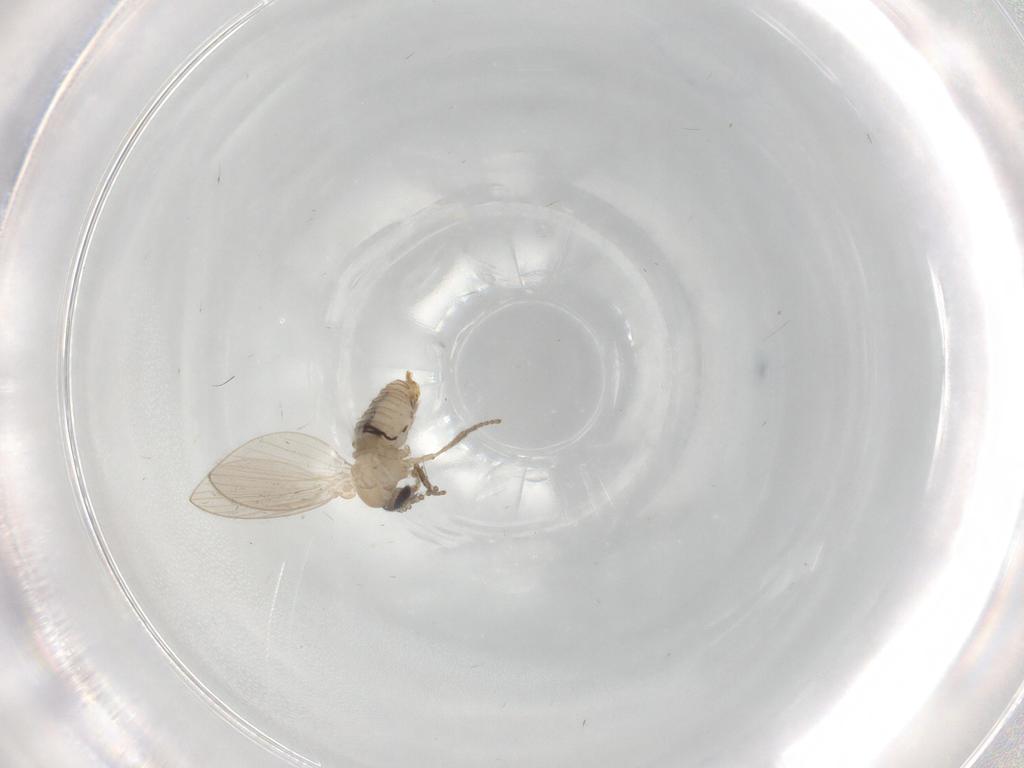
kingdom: Animalia
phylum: Arthropoda
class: Insecta
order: Diptera
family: Psychodidae
